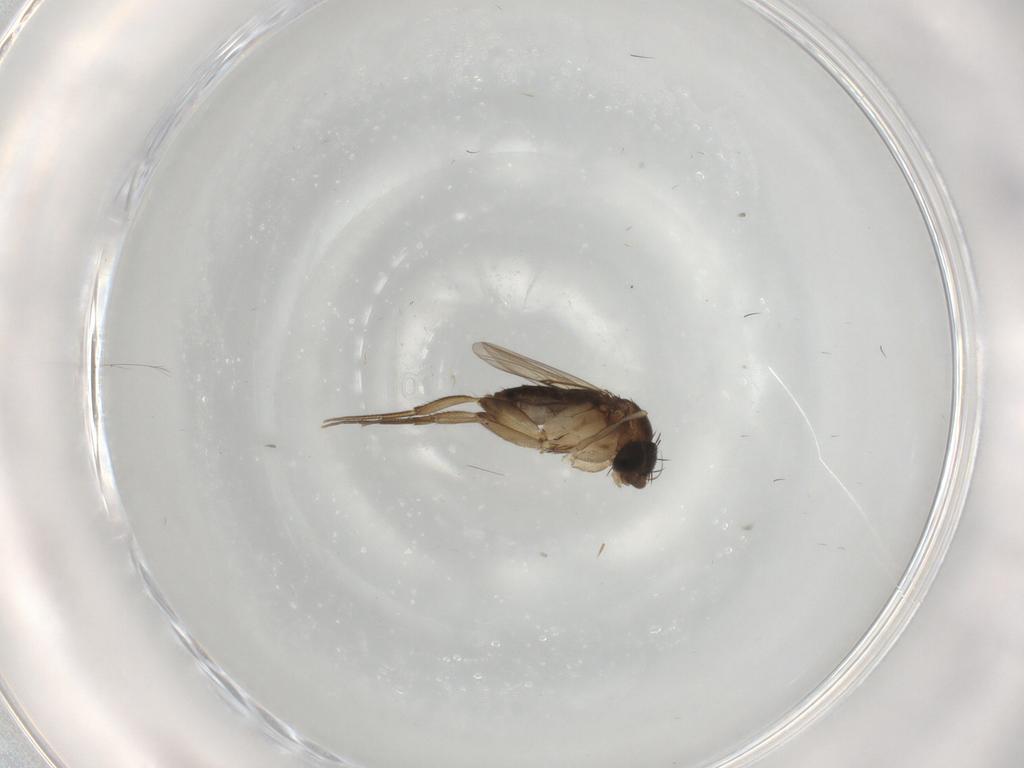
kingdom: Animalia
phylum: Arthropoda
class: Insecta
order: Diptera
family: Phoridae
